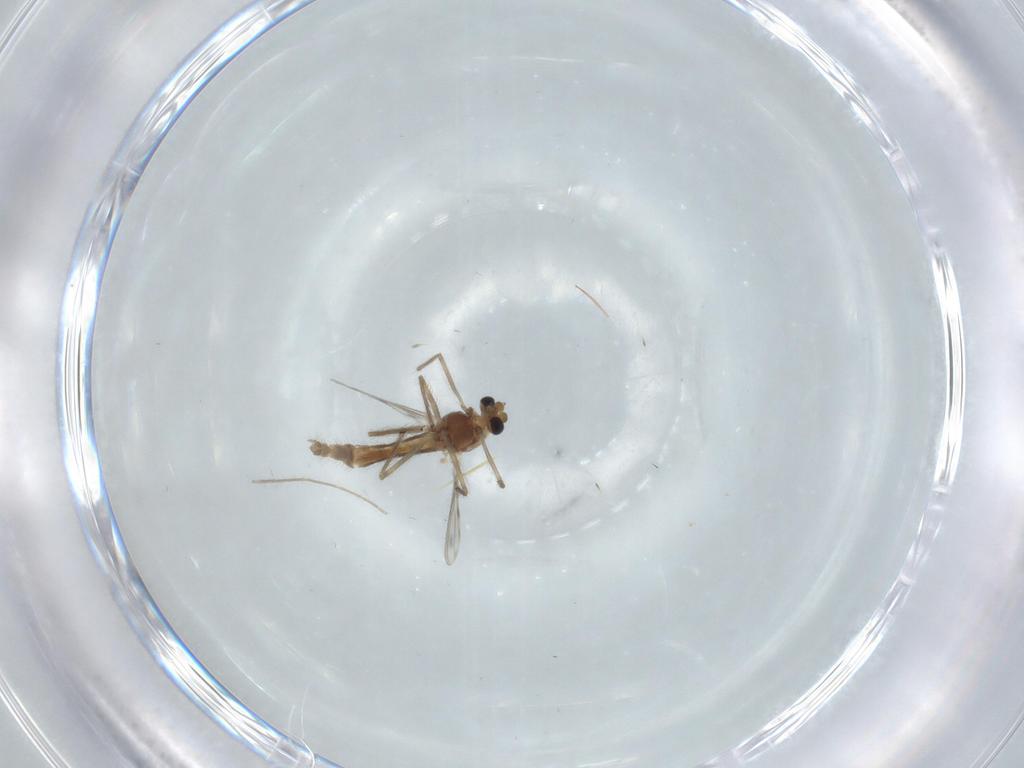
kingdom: Animalia
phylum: Arthropoda
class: Insecta
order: Diptera
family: Chironomidae
